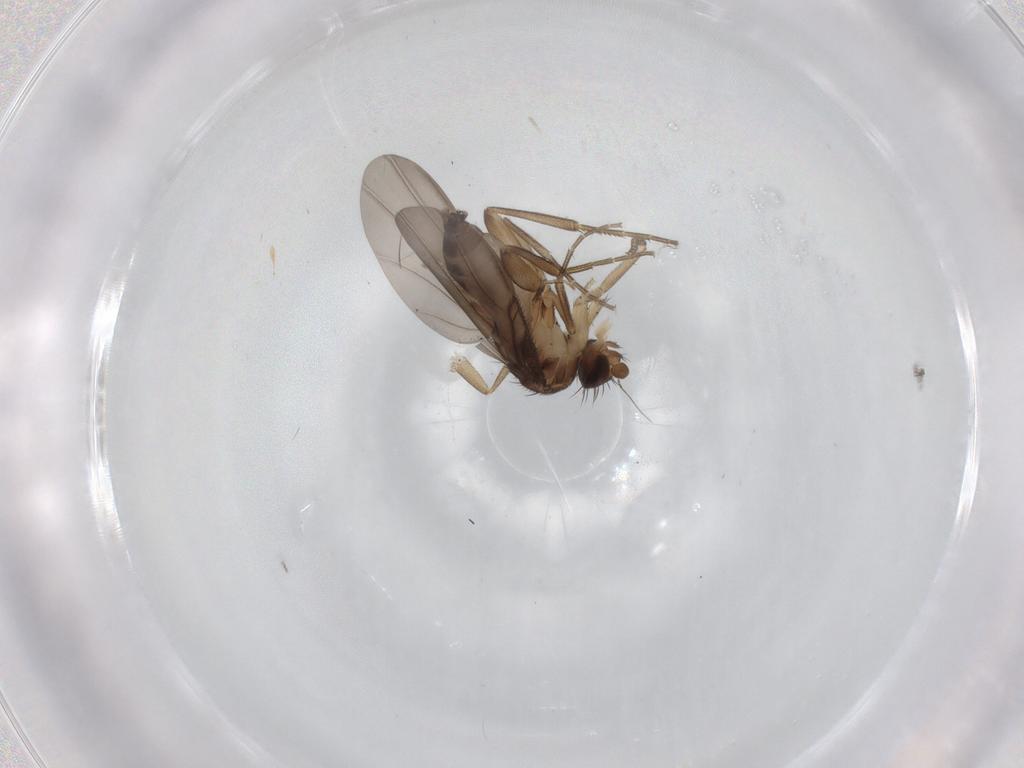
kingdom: Animalia
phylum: Arthropoda
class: Insecta
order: Diptera
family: Phoridae
